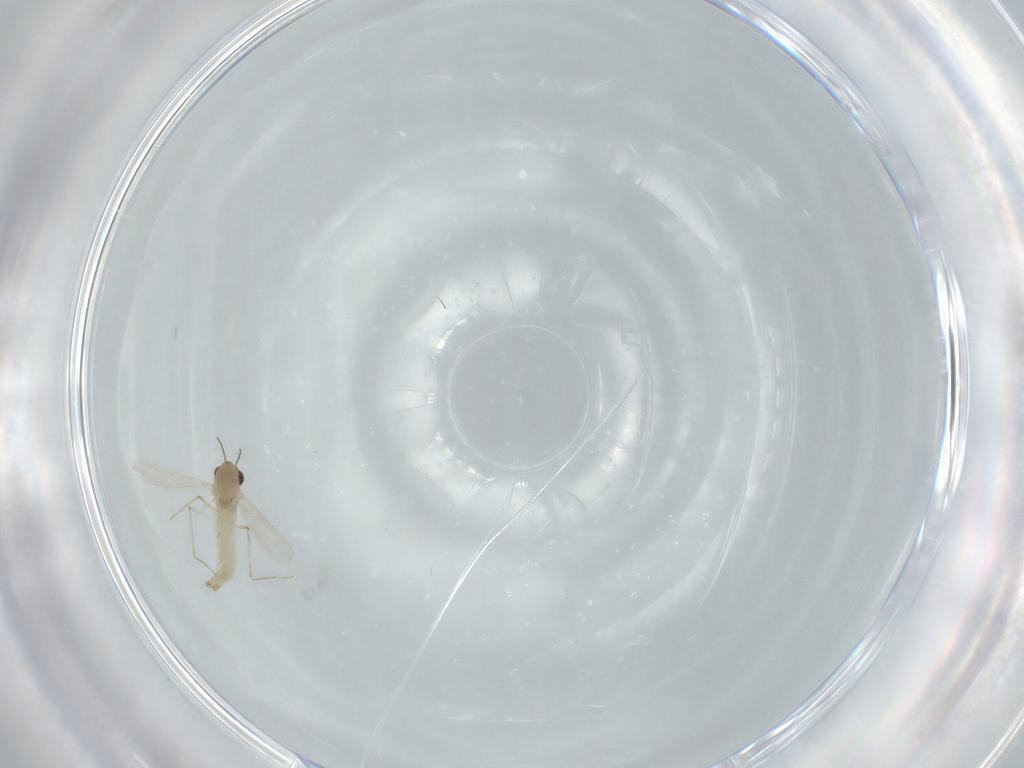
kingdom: Animalia
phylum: Arthropoda
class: Insecta
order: Diptera
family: Chironomidae
